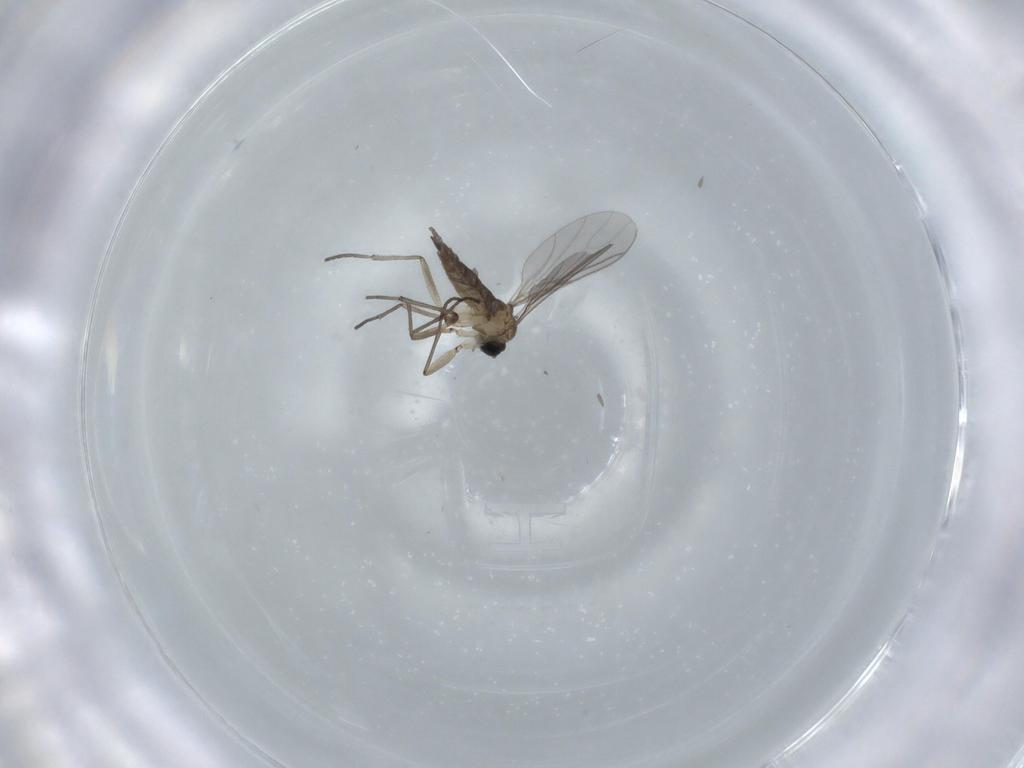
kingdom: Animalia
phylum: Arthropoda
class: Insecta
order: Diptera
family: Sciaridae
